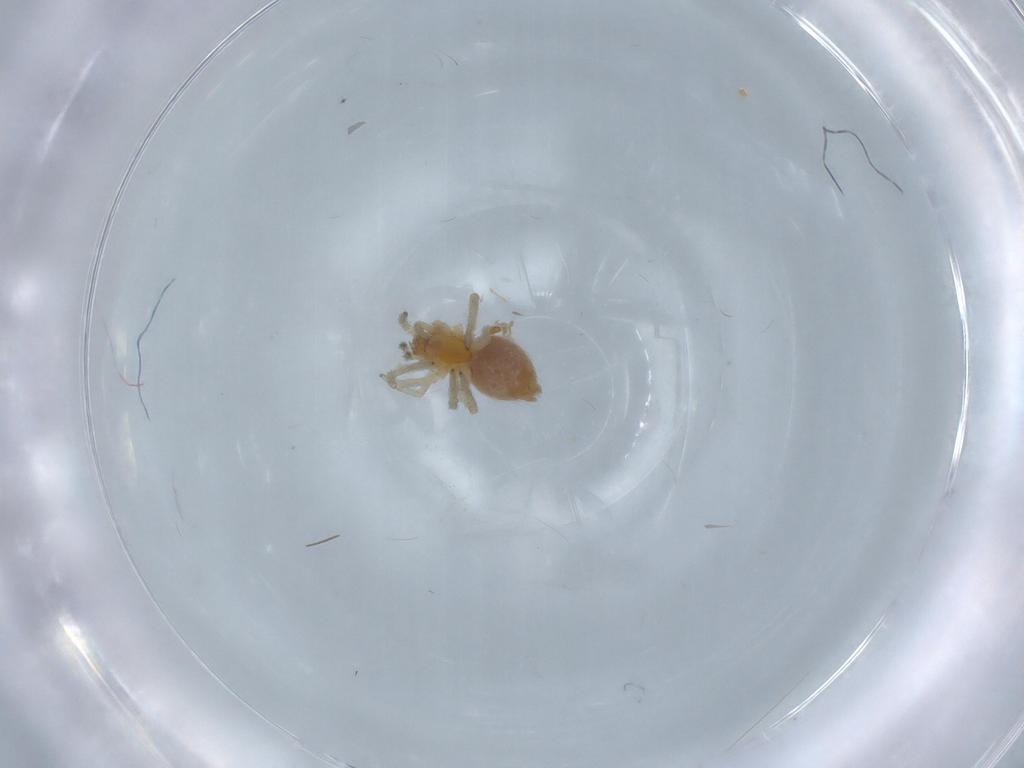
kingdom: Animalia
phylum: Arthropoda
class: Arachnida
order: Araneae
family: Dictynidae
